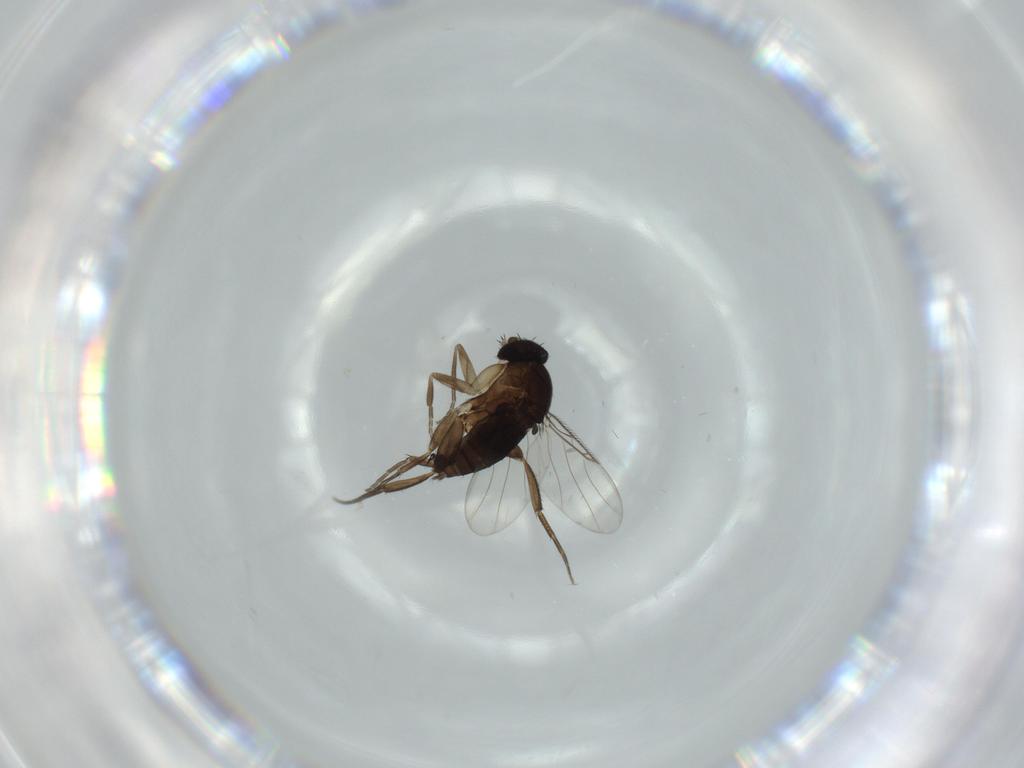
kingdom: Animalia
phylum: Arthropoda
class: Insecta
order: Diptera
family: Phoridae
